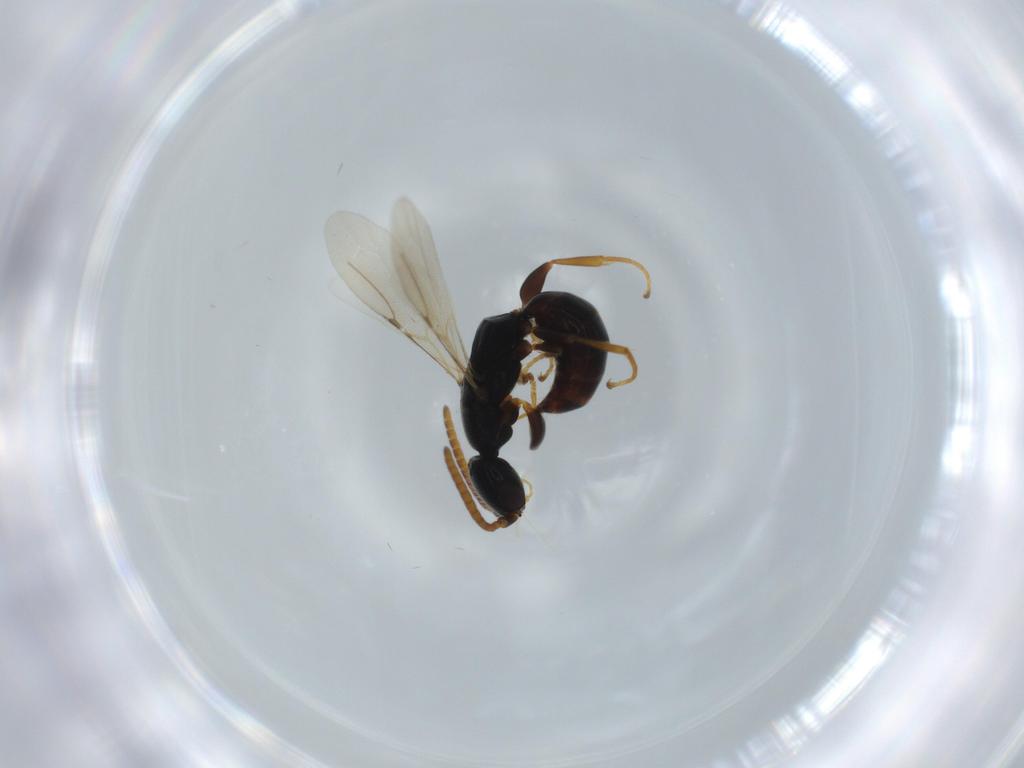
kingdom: Animalia
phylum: Arthropoda
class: Insecta
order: Hymenoptera
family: Bethylidae
